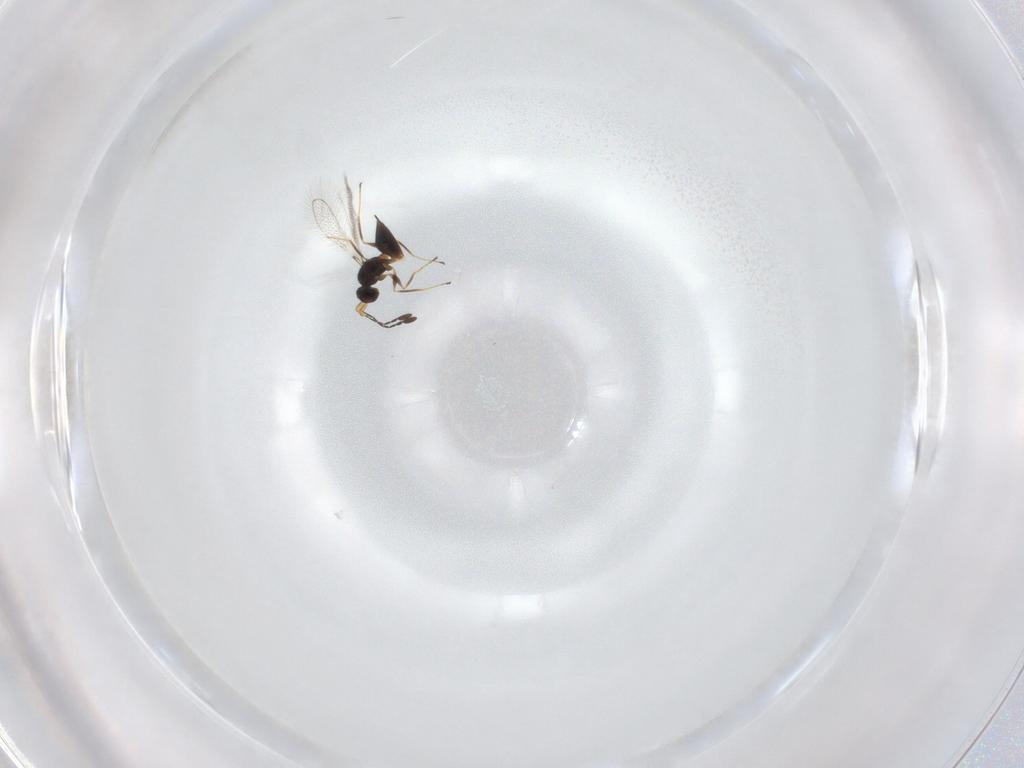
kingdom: Animalia
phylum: Arthropoda
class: Insecta
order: Hymenoptera
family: Mymaridae
